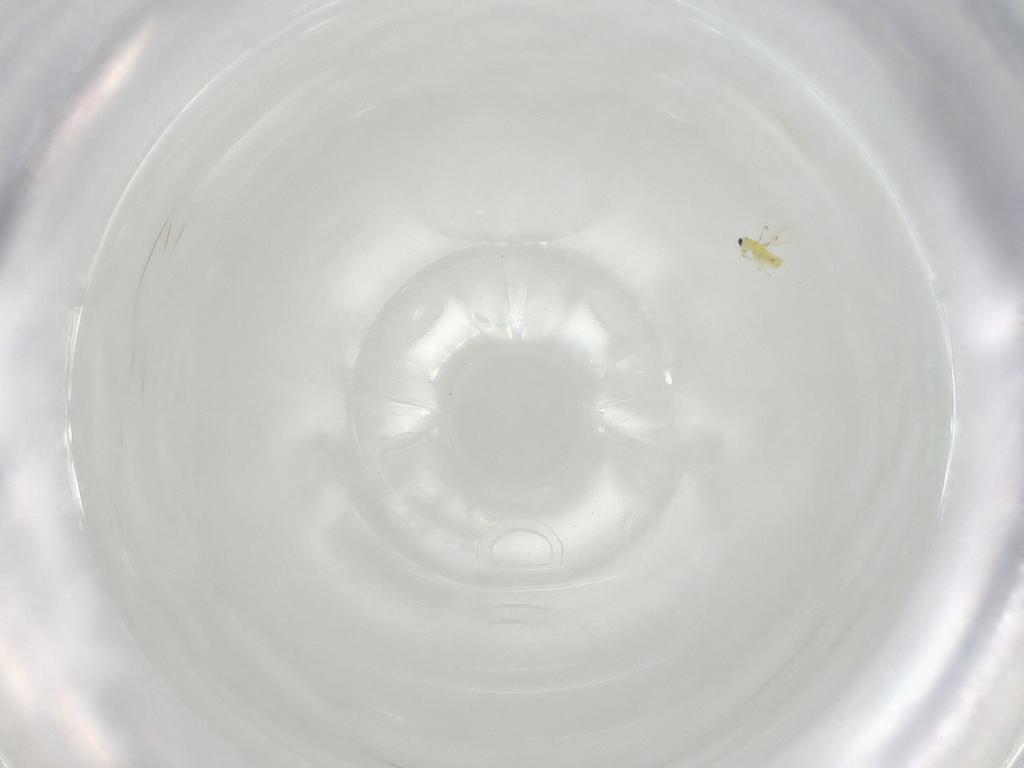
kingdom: Animalia
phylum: Arthropoda
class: Insecta
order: Hymenoptera
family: Trichogrammatidae
